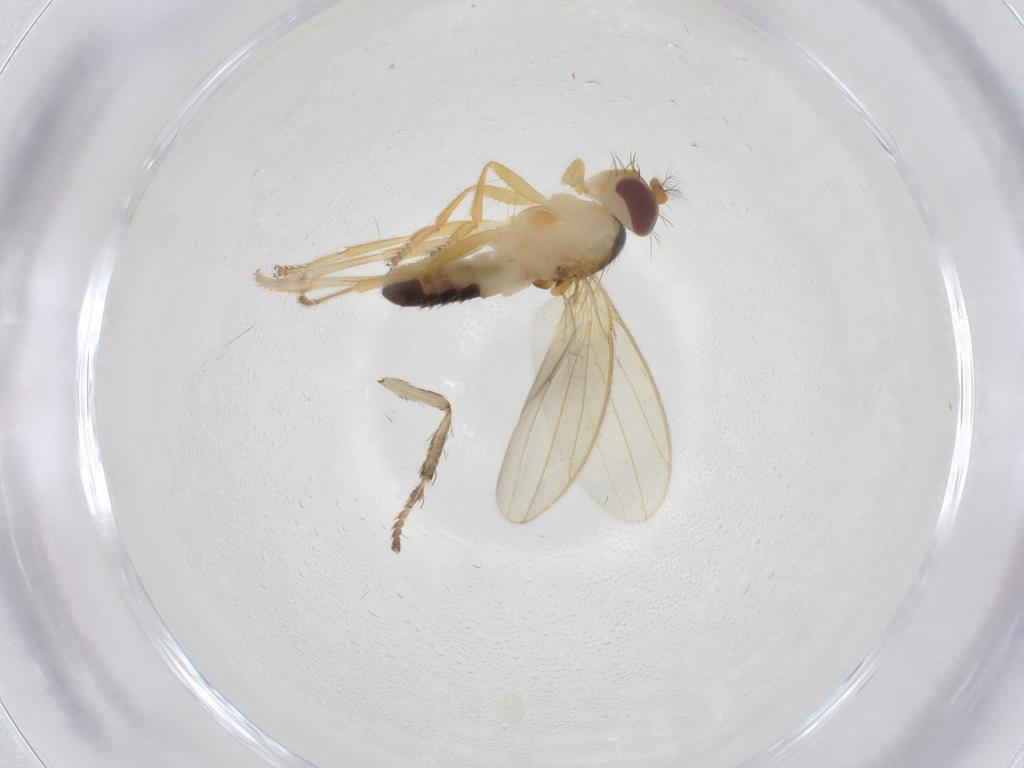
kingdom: Animalia
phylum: Arthropoda
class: Insecta
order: Diptera
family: Periscelididae
